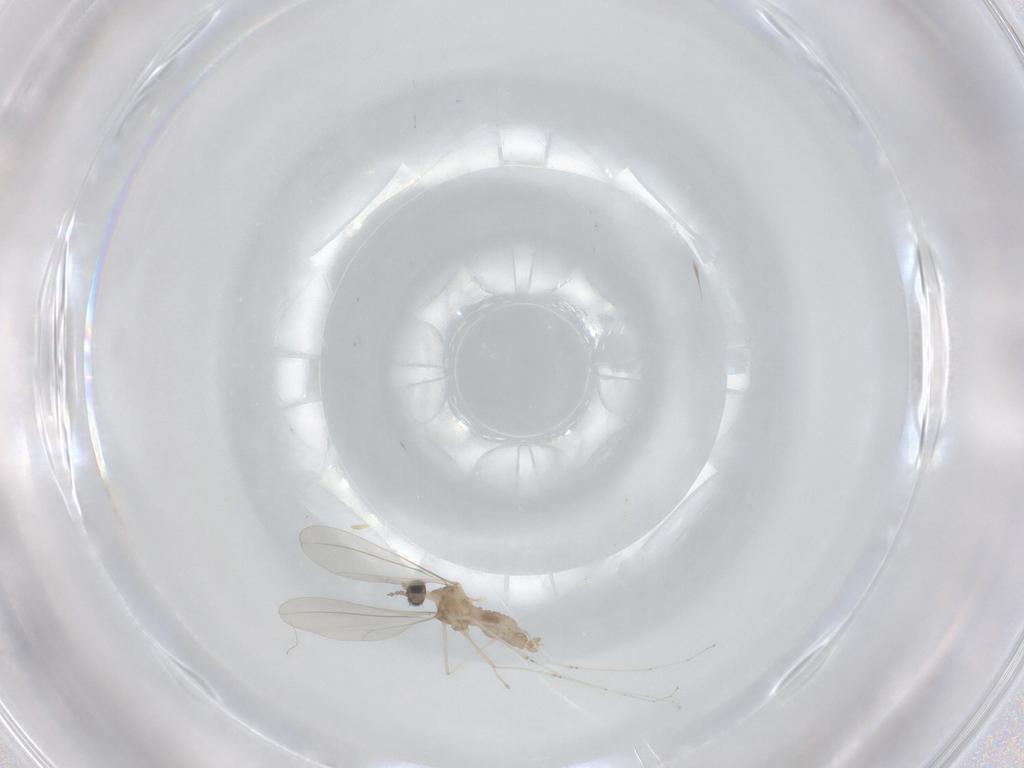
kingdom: Animalia
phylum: Arthropoda
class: Insecta
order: Diptera
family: Cecidomyiidae
